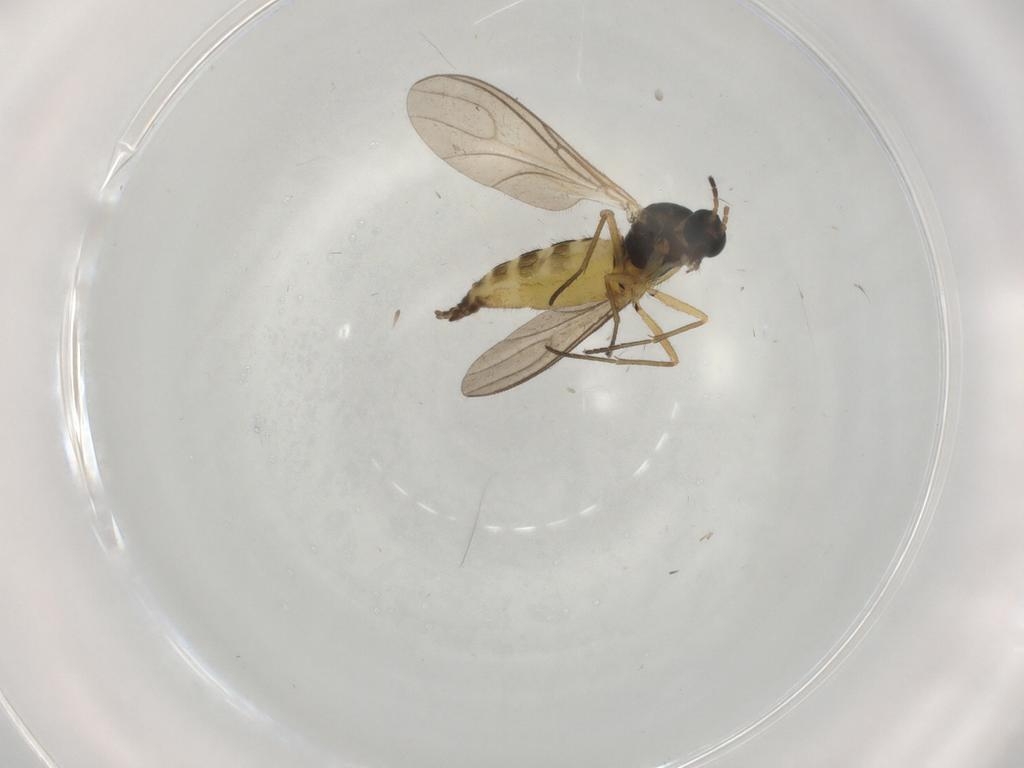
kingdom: Animalia
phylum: Arthropoda
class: Insecta
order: Diptera
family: Sciaridae
